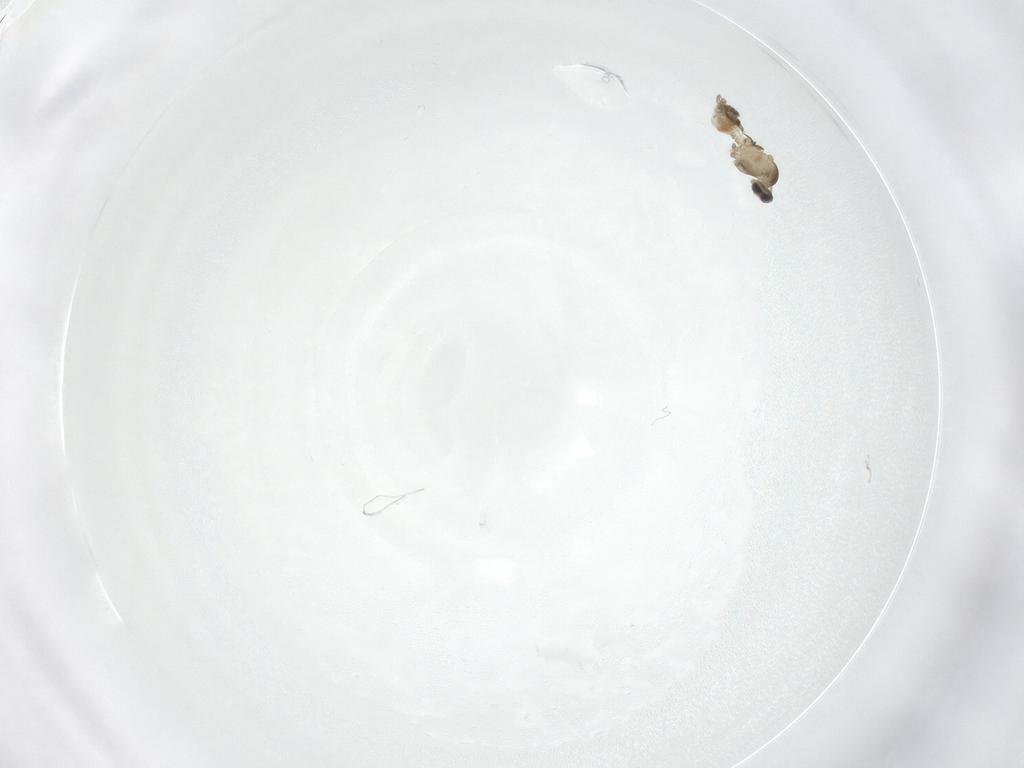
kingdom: Animalia
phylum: Arthropoda
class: Insecta
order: Diptera
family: Cecidomyiidae
